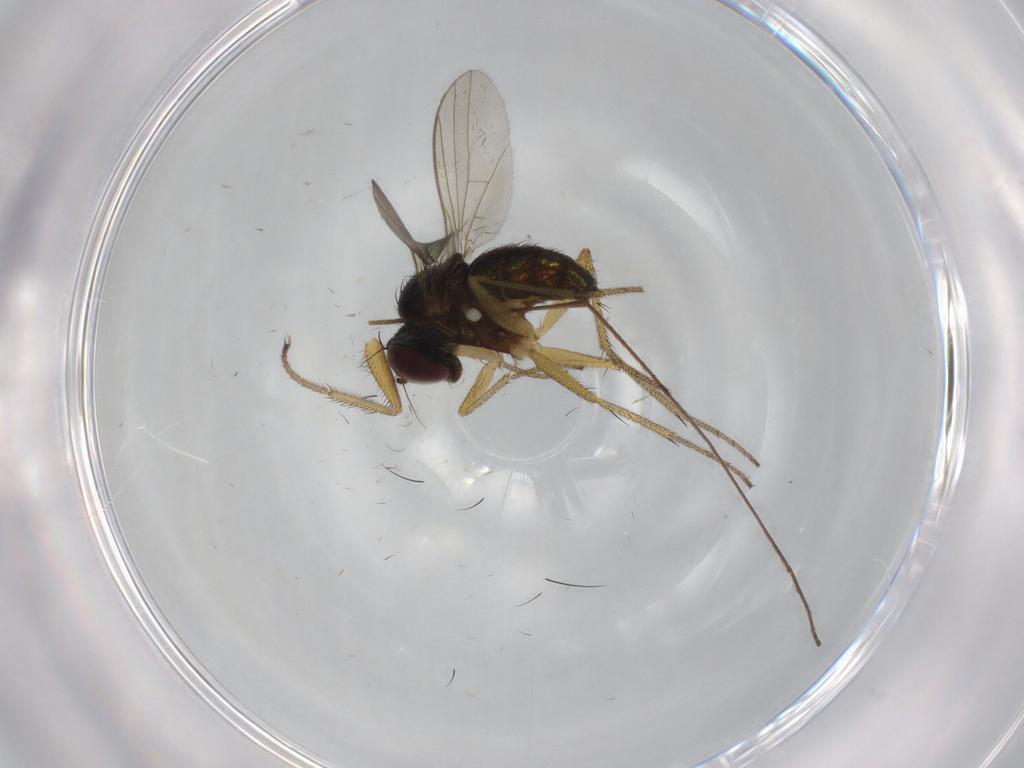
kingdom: Animalia
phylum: Arthropoda
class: Insecta
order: Diptera
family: Limoniidae
